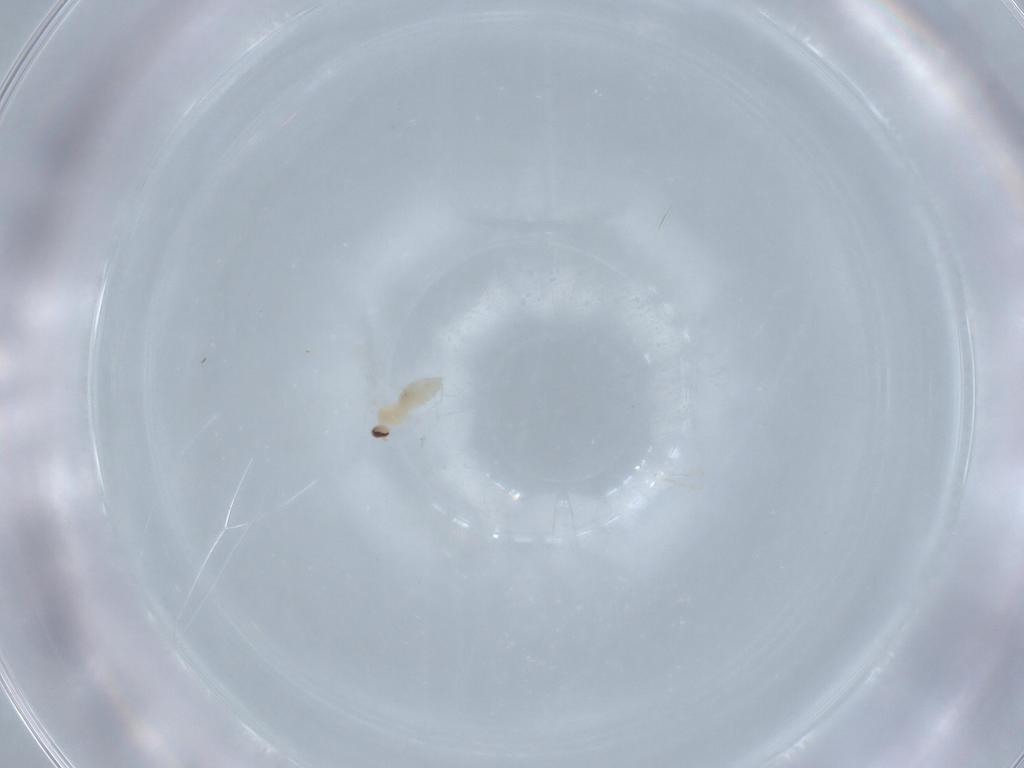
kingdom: Animalia
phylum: Arthropoda
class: Insecta
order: Diptera
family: Cecidomyiidae
